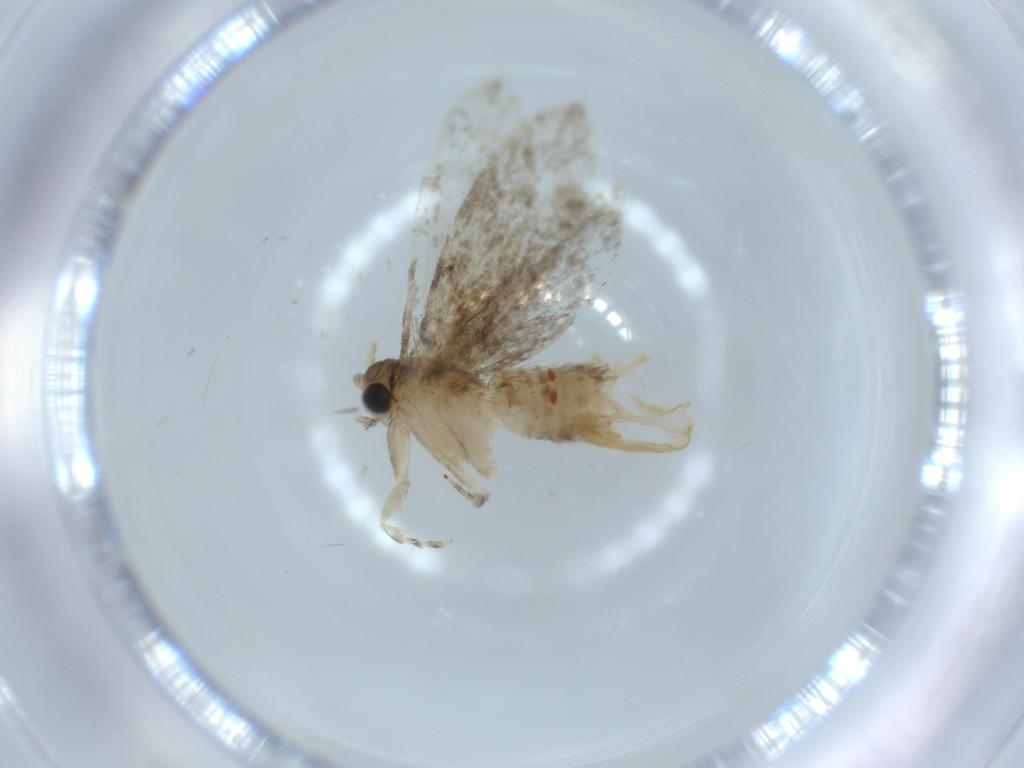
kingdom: Animalia
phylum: Arthropoda
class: Insecta
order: Lepidoptera
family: Tineidae
